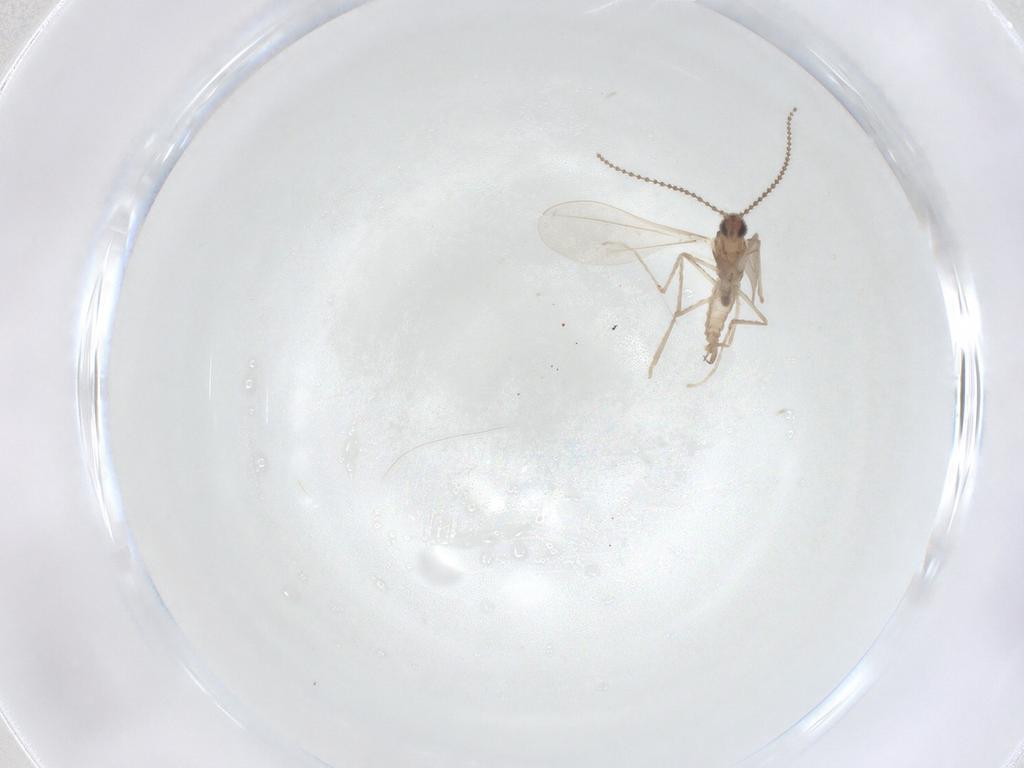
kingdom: Animalia
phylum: Arthropoda
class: Insecta
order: Diptera
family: Cecidomyiidae
